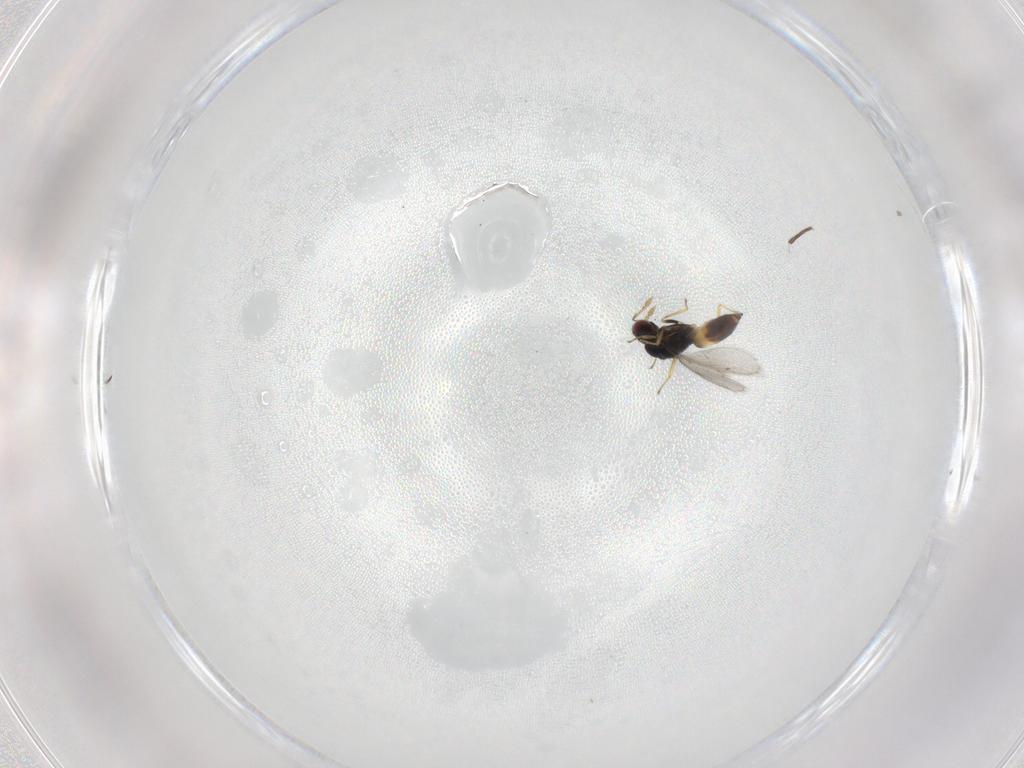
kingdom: Animalia
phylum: Arthropoda
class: Insecta
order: Hymenoptera
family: Eulophidae
